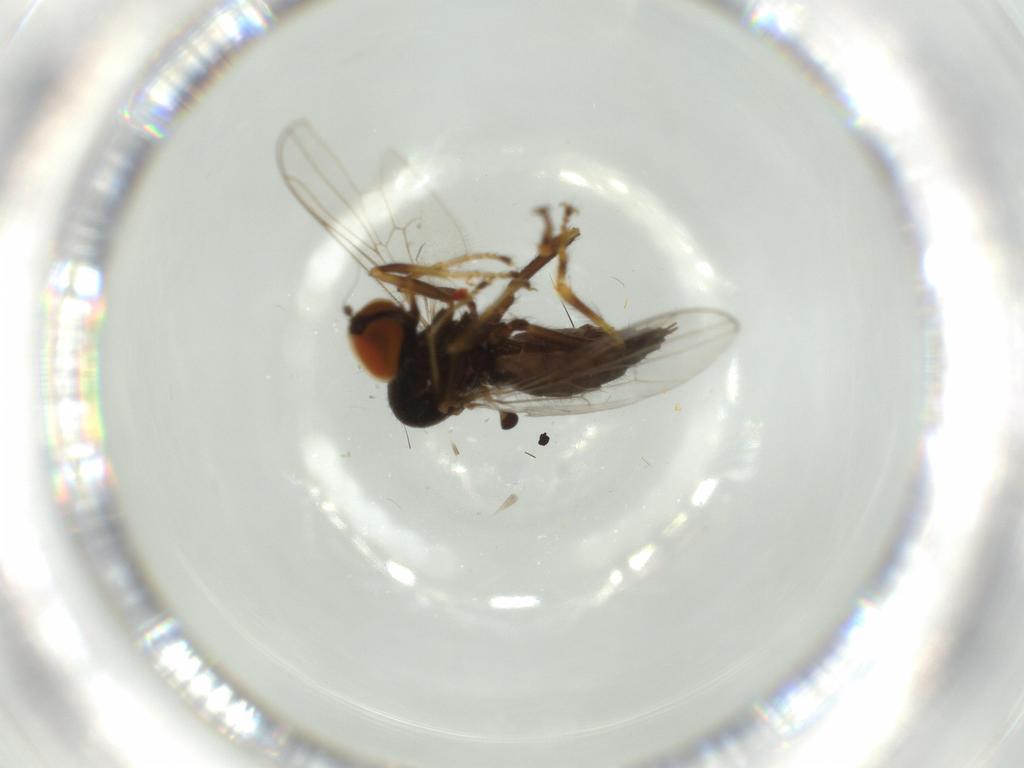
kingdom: Animalia
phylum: Arthropoda
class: Insecta
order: Diptera
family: Hybotidae
